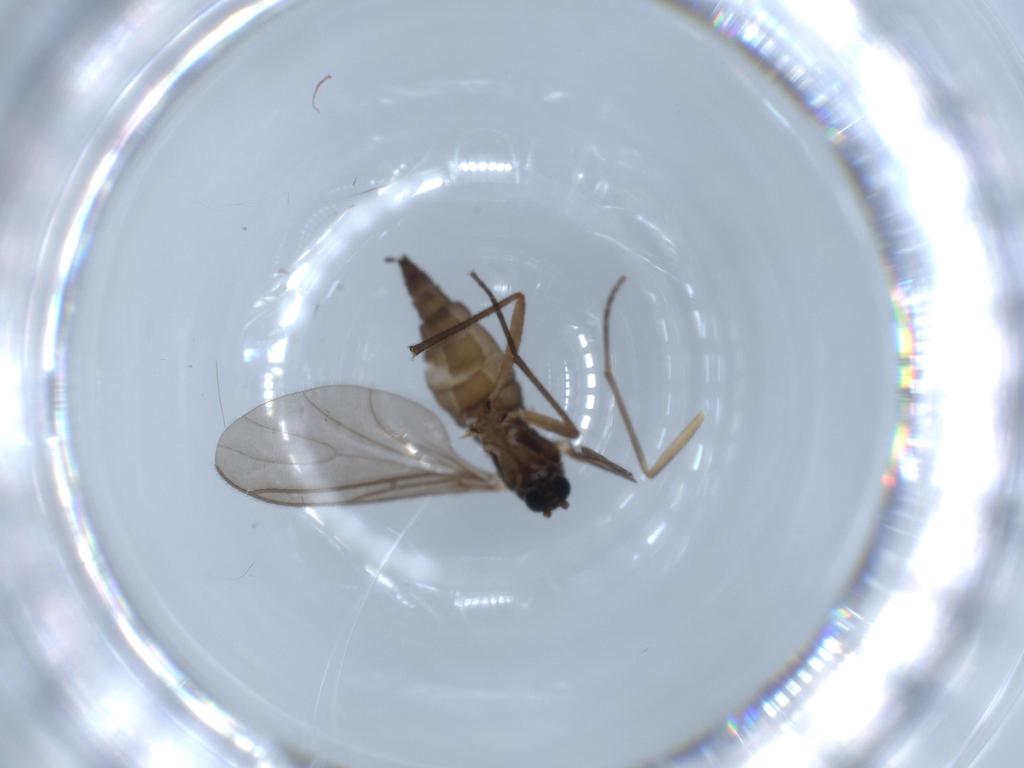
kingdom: Animalia
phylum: Arthropoda
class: Insecta
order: Diptera
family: Sciaridae
